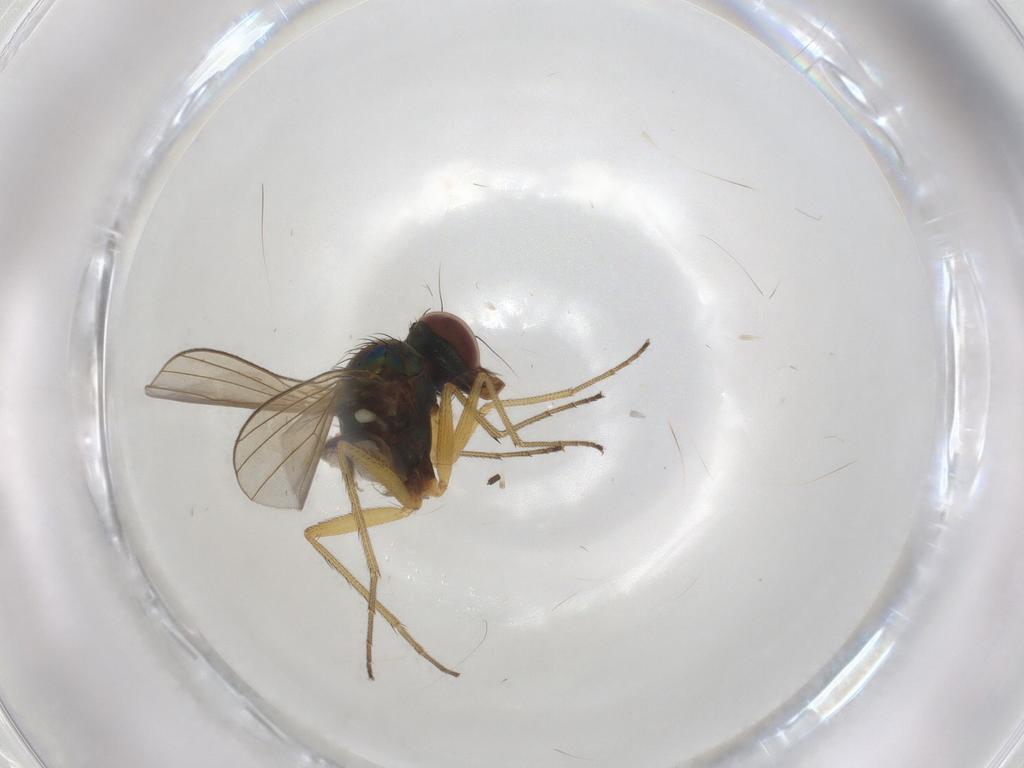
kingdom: Animalia
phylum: Arthropoda
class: Insecta
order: Diptera
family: Dolichopodidae
